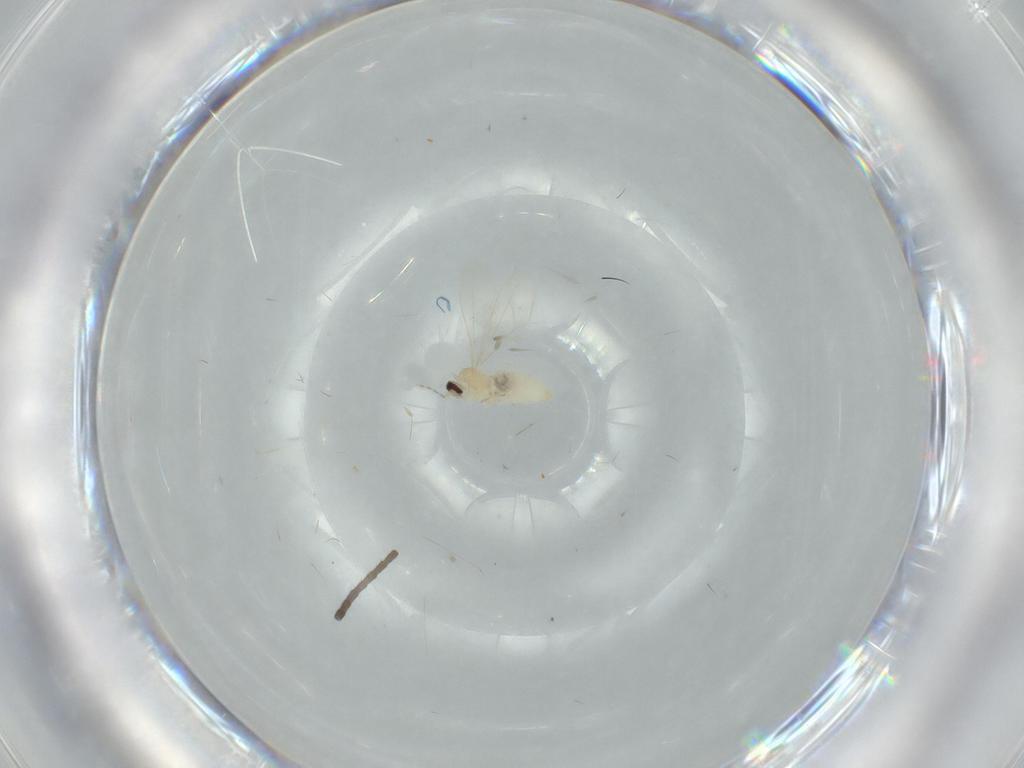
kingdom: Animalia
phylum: Arthropoda
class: Insecta
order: Diptera
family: Cecidomyiidae
